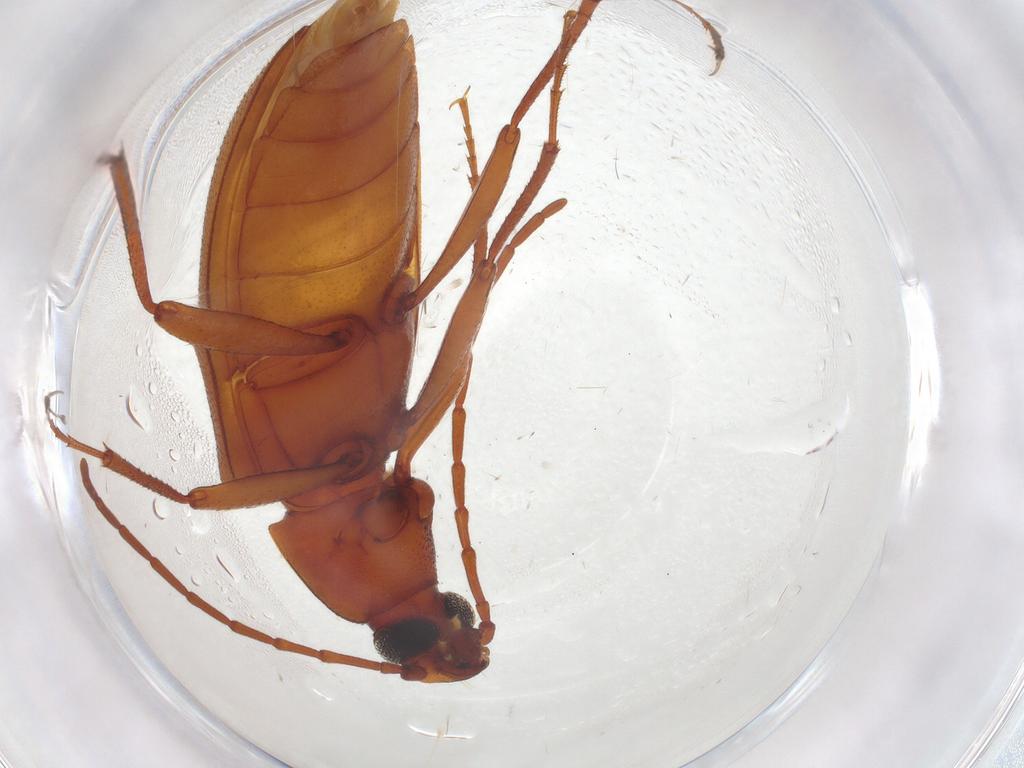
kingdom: Animalia
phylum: Arthropoda
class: Insecta
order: Coleoptera
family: Tenebrionidae
